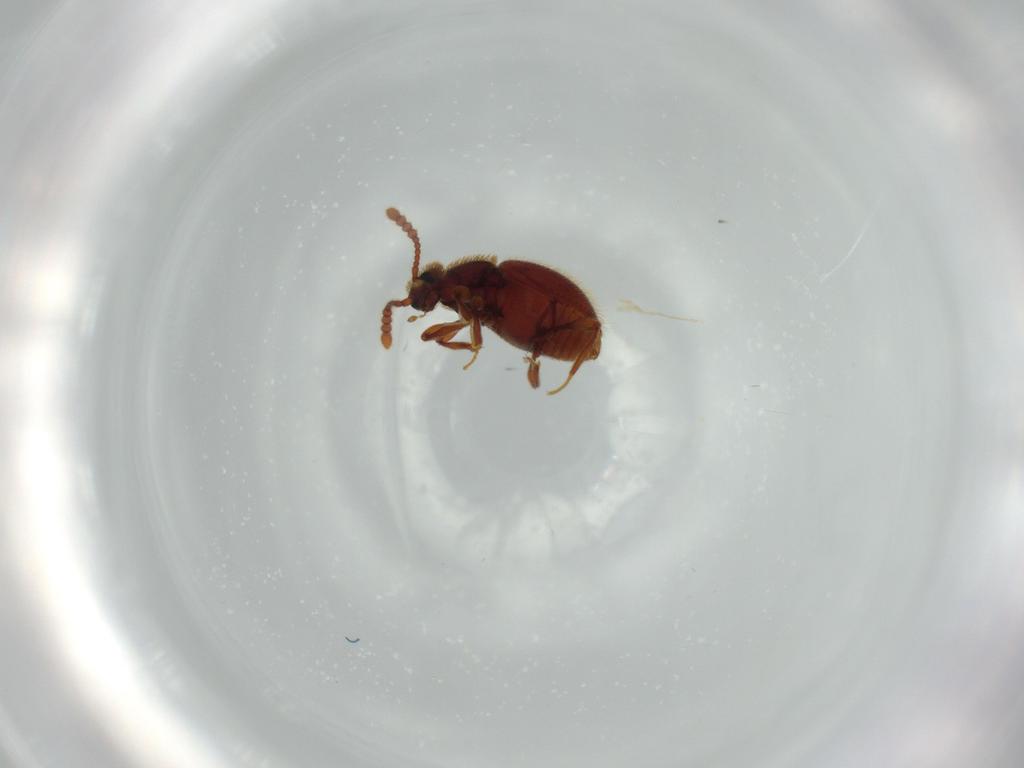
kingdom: Animalia
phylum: Arthropoda
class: Insecta
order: Coleoptera
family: Staphylinidae
